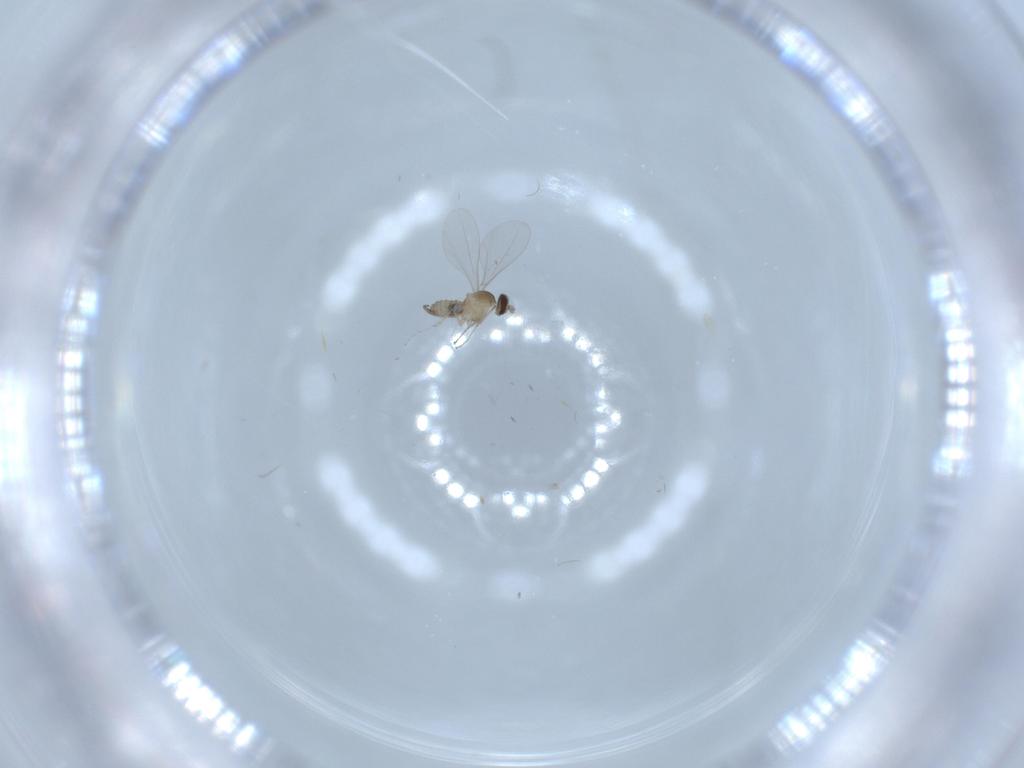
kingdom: Animalia
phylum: Arthropoda
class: Insecta
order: Diptera
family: Cecidomyiidae
